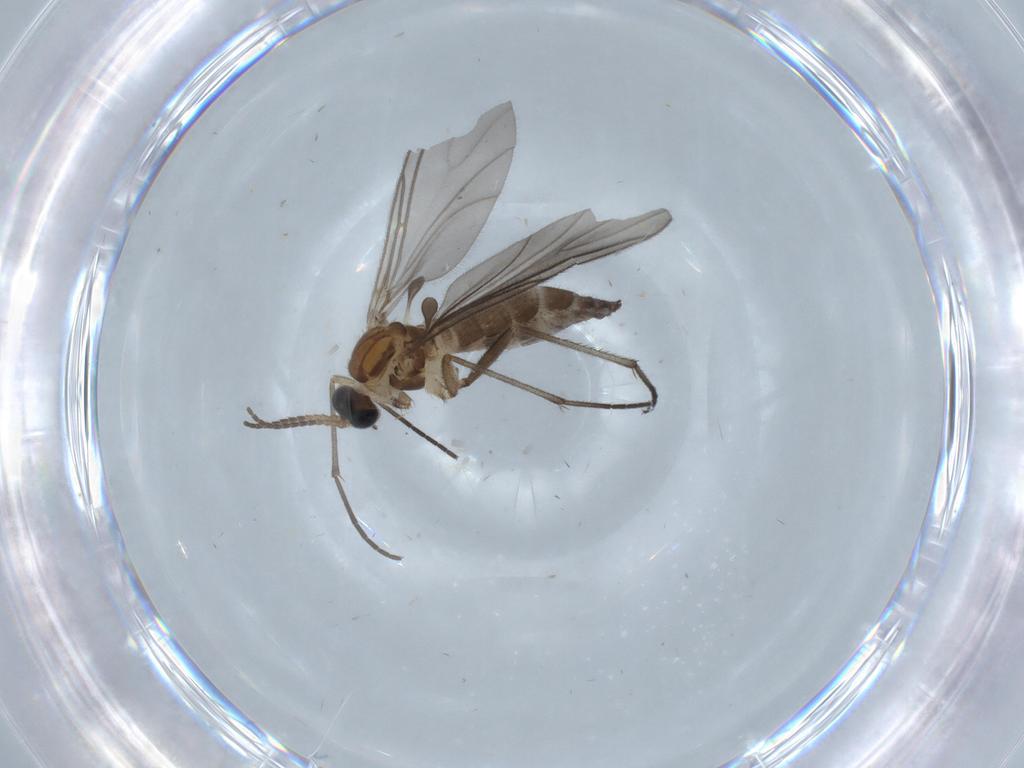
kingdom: Animalia
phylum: Arthropoda
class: Insecta
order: Diptera
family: Sciaridae
